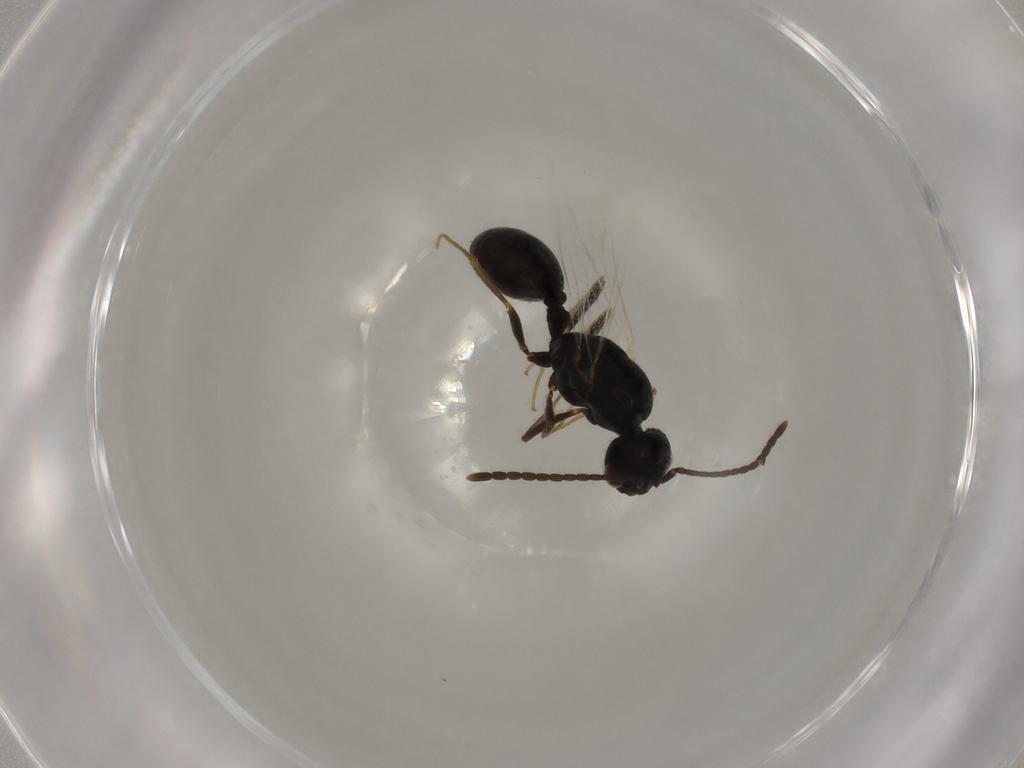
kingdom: Animalia
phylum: Arthropoda
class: Insecta
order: Hymenoptera
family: Formicidae
